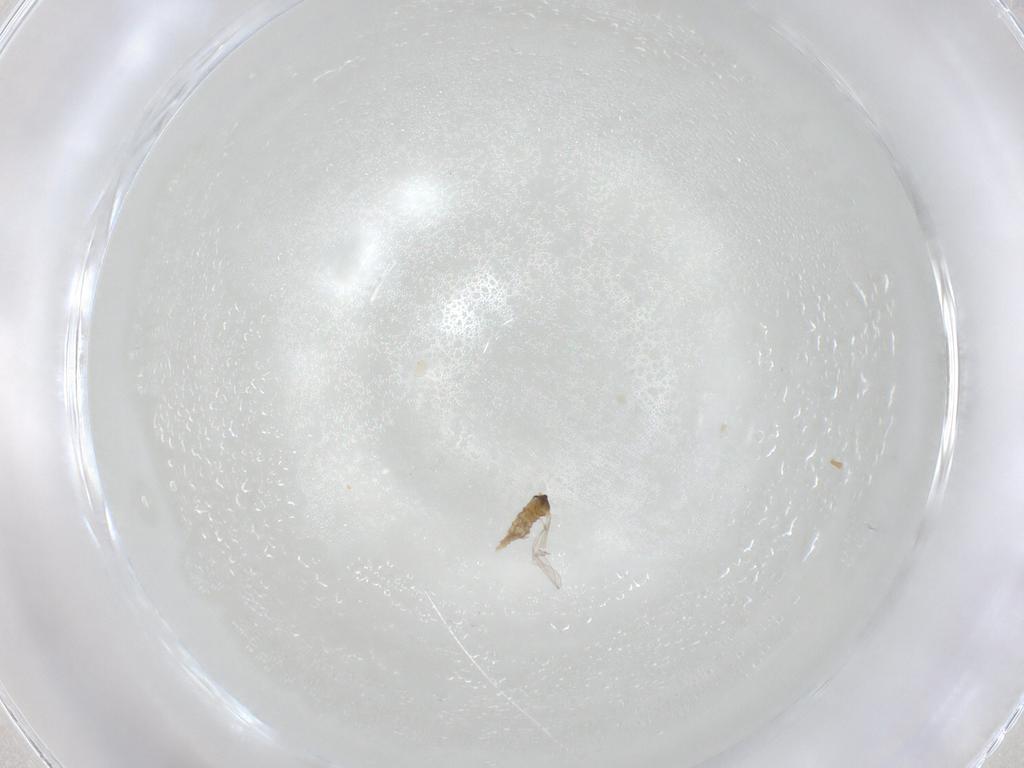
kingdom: Animalia
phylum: Arthropoda
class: Insecta
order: Diptera
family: Cecidomyiidae
